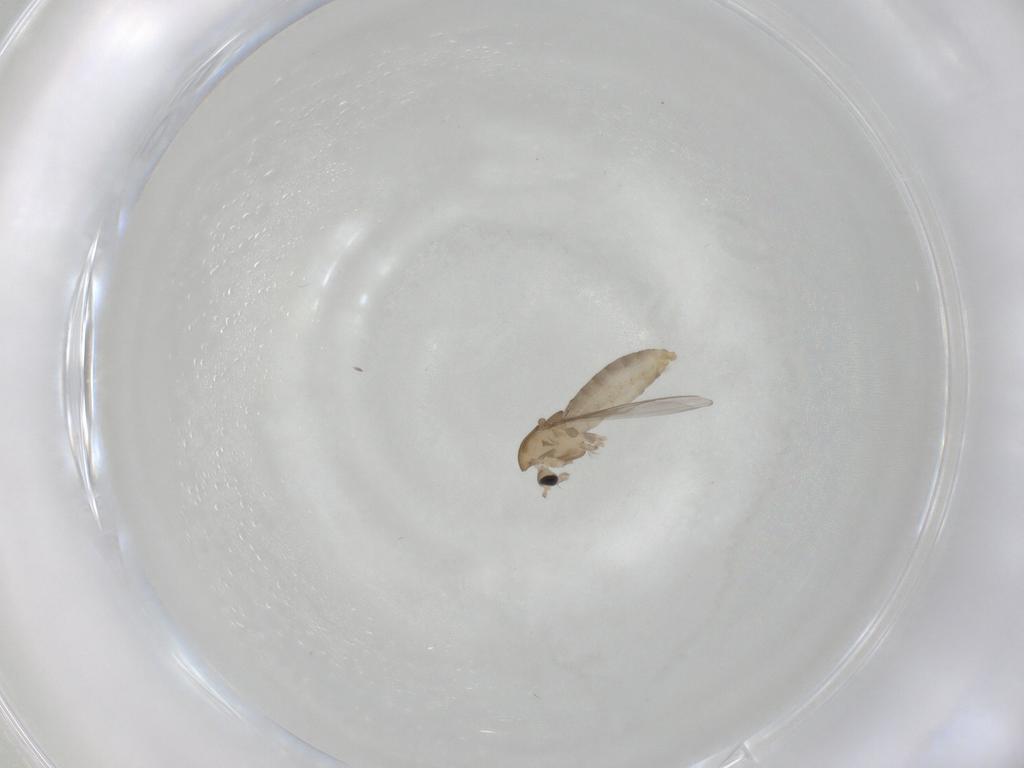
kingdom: Animalia
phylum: Arthropoda
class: Insecta
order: Diptera
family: Chironomidae
